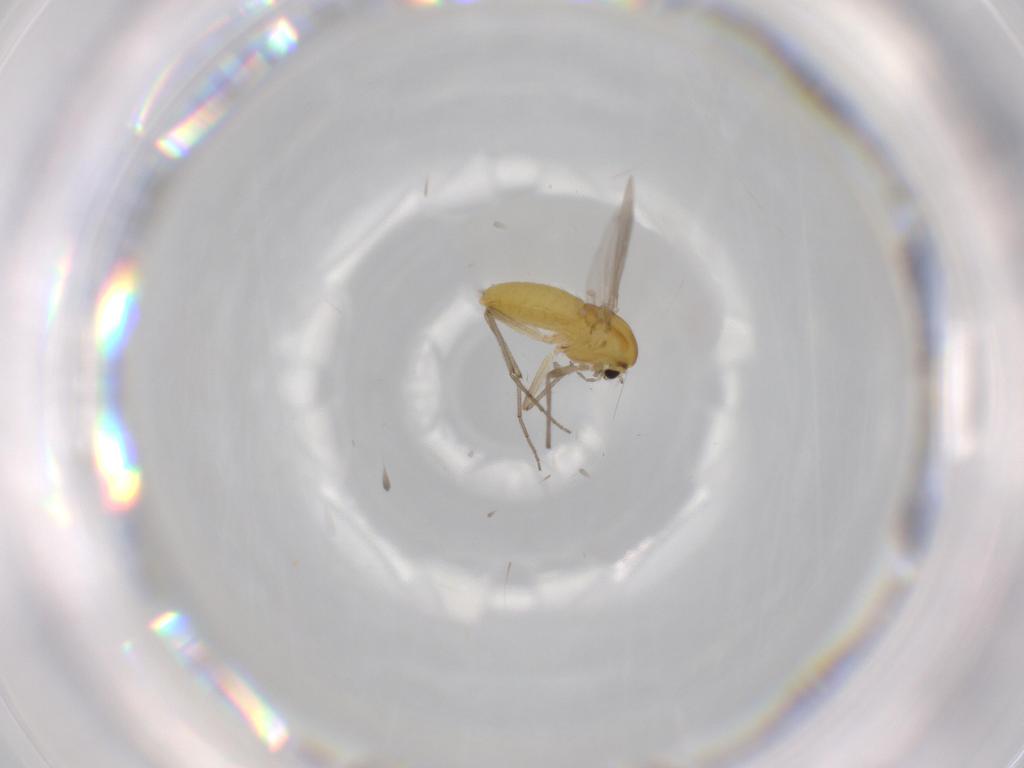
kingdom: Animalia
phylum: Arthropoda
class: Insecta
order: Diptera
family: Chironomidae
